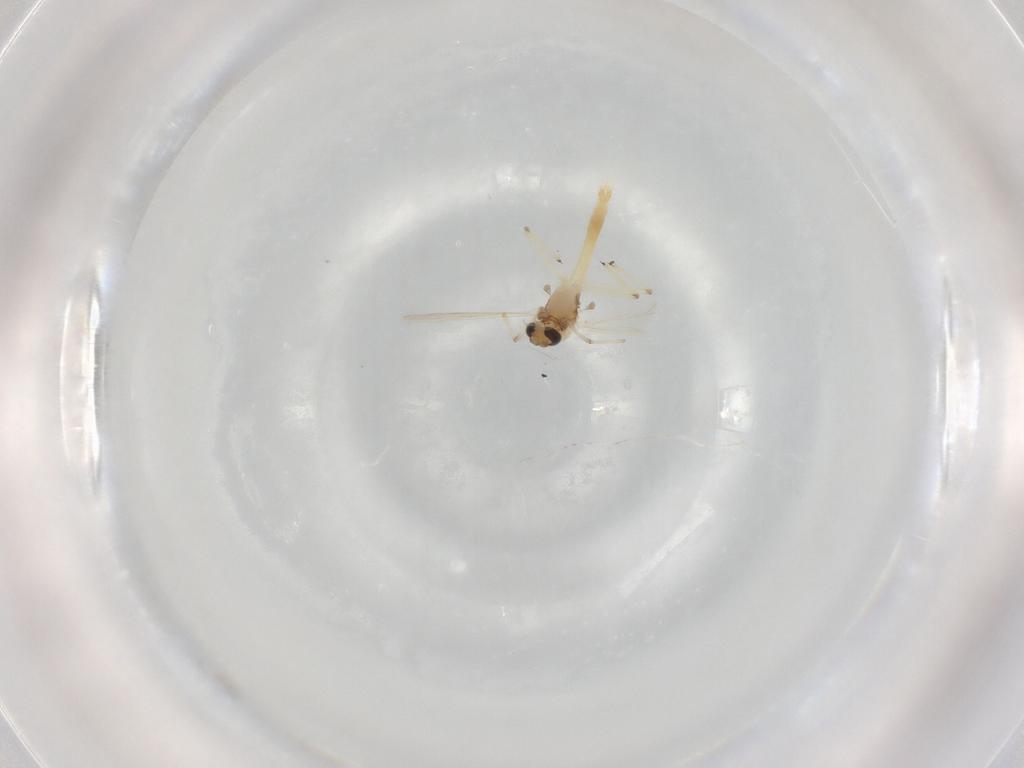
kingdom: Animalia
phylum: Arthropoda
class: Insecta
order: Diptera
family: Chironomidae
